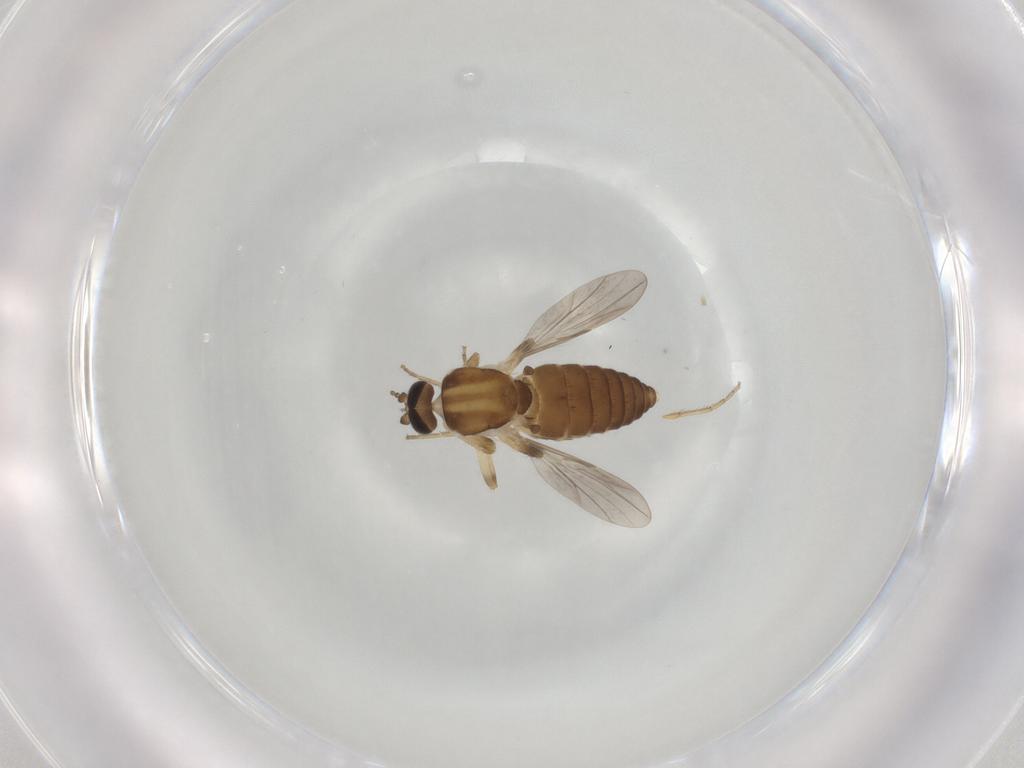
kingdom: Animalia
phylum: Arthropoda
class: Insecta
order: Diptera
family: Ceratopogonidae
